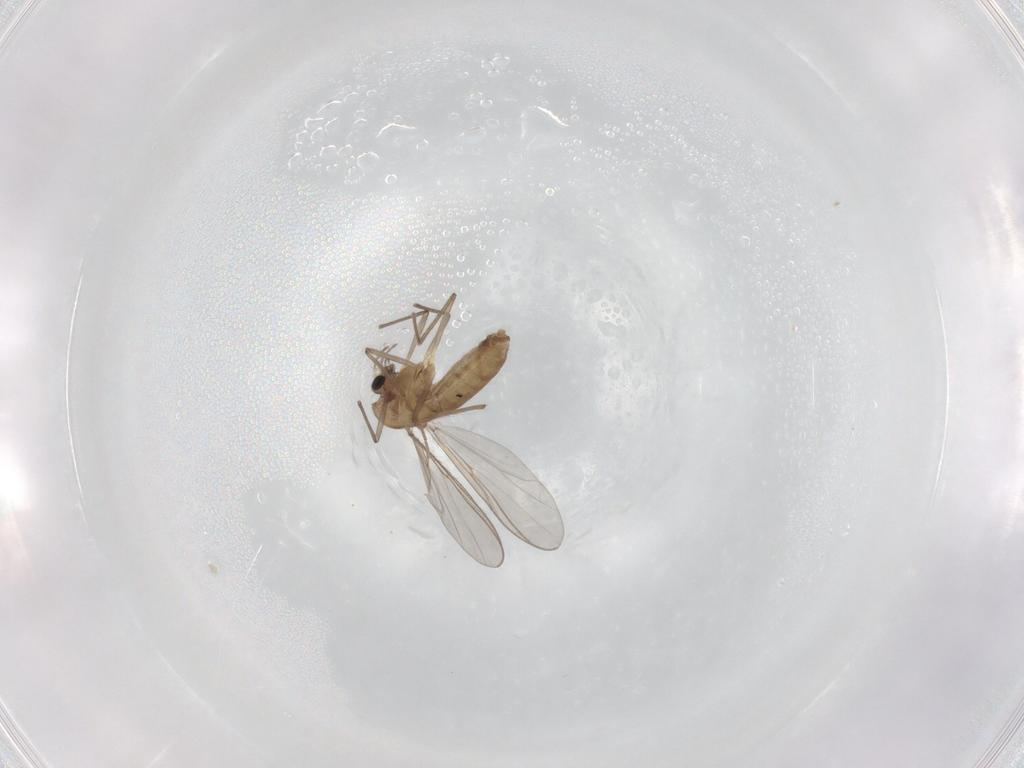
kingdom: Animalia
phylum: Arthropoda
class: Insecta
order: Diptera
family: Chironomidae
